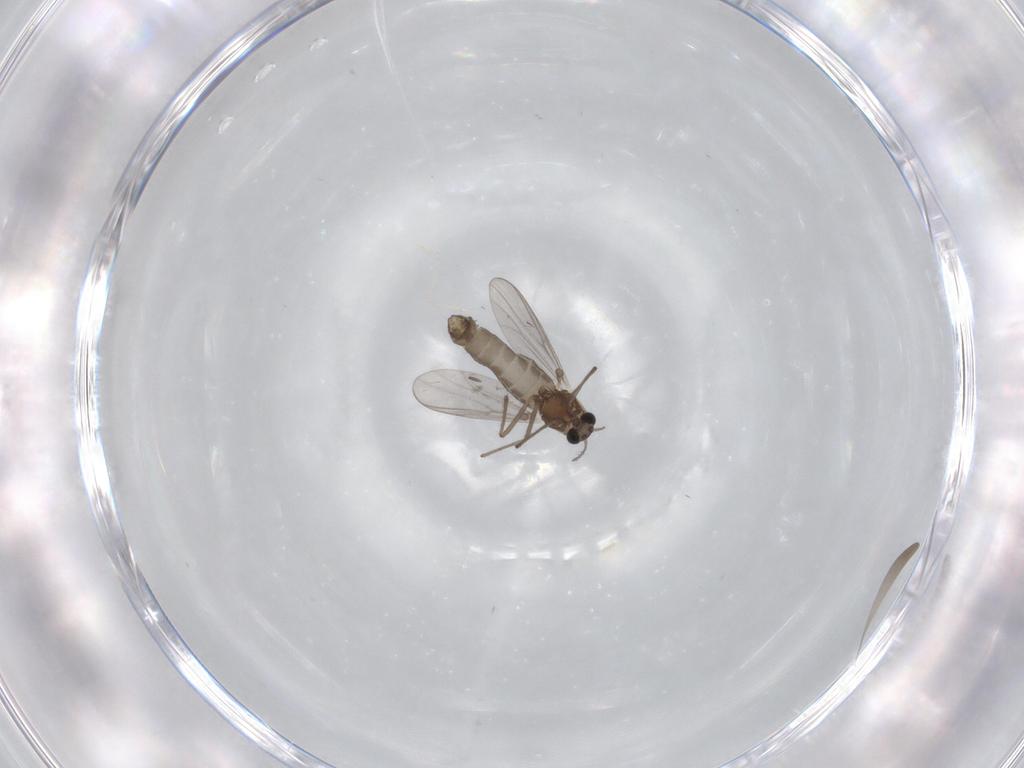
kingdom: Animalia
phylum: Arthropoda
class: Insecta
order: Diptera
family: Chironomidae
